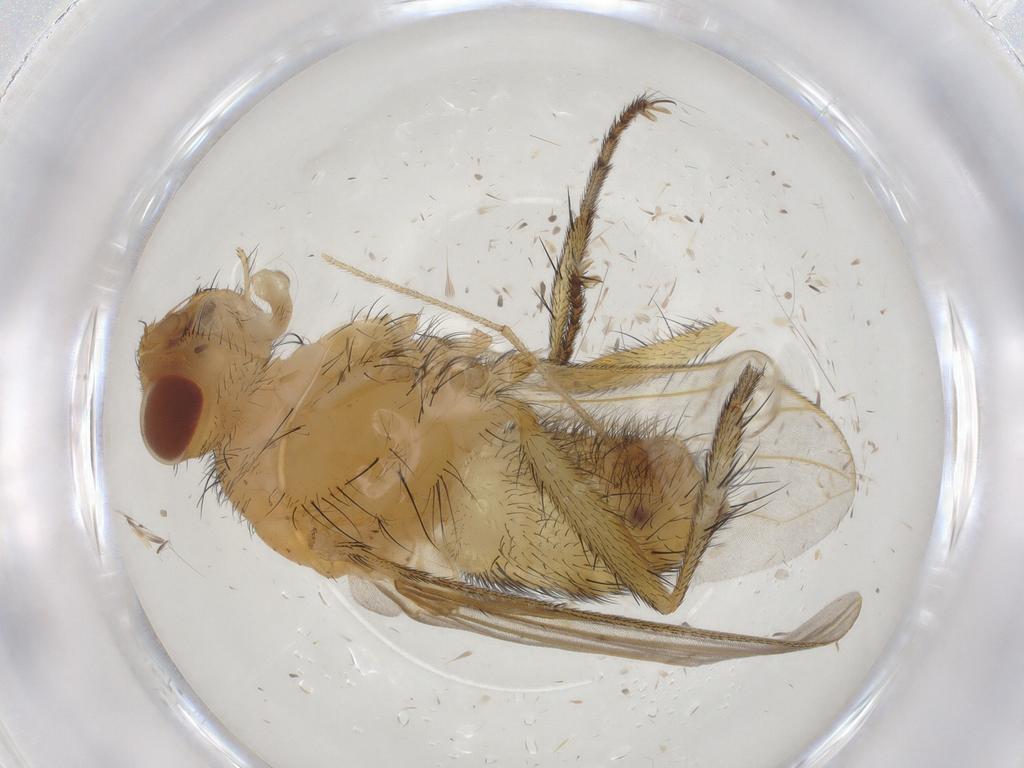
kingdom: Animalia
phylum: Arthropoda
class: Insecta
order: Diptera
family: Tachinidae
